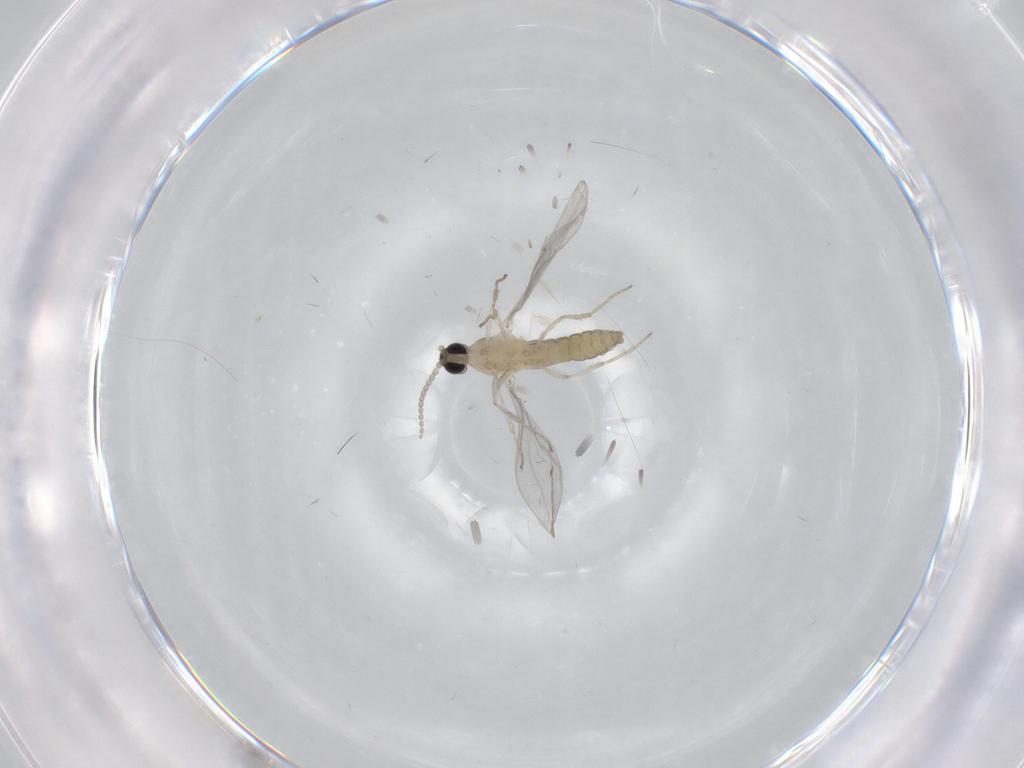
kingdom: Animalia
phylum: Arthropoda
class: Insecta
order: Diptera
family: Cecidomyiidae
